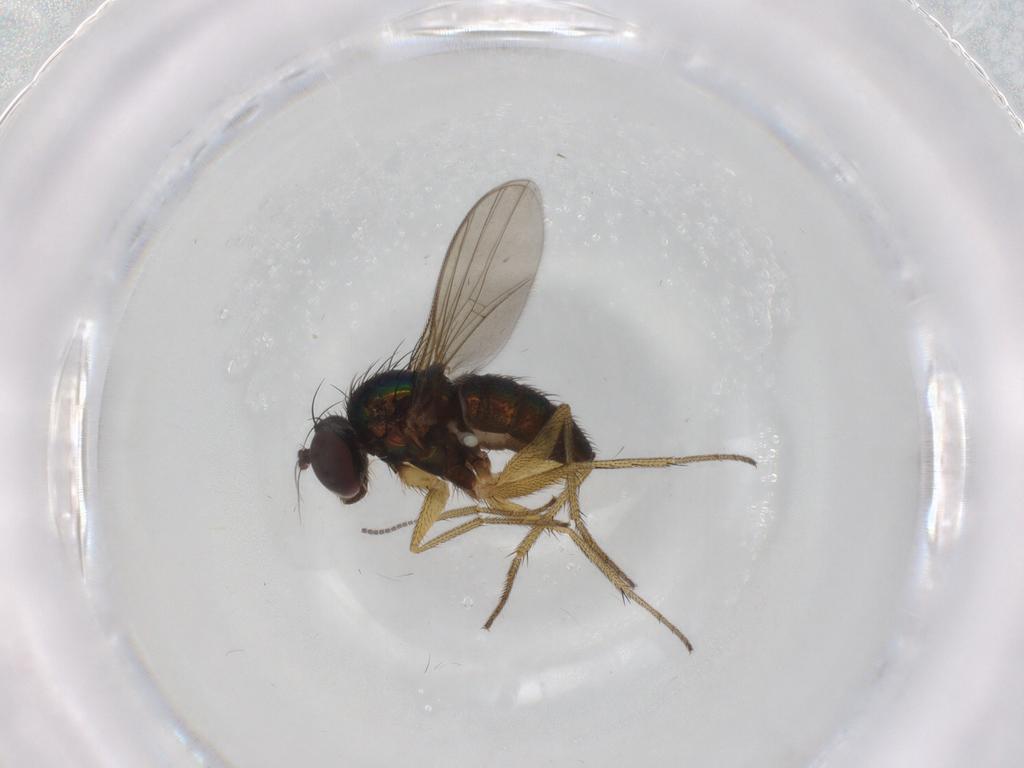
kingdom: Animalia
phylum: Arthropoda
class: Insecta
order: Diptera
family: Sciaridae
